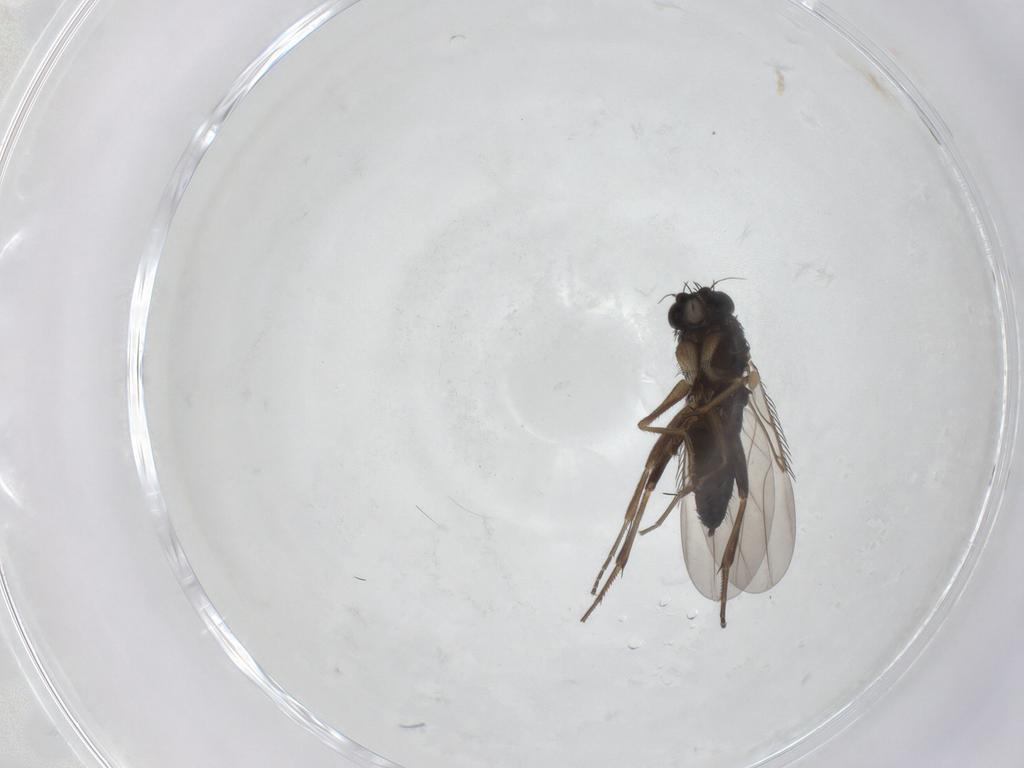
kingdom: Animalia
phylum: Arthropoda
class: Insecta
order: Diptera
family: Phoridae
